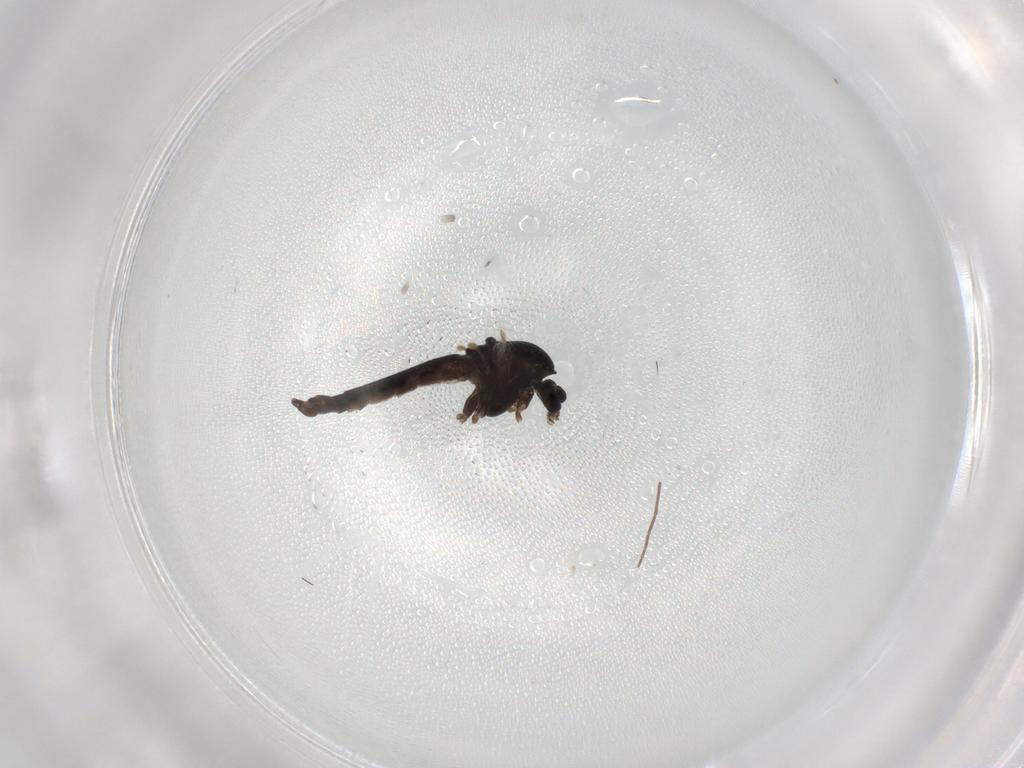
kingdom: Animalia
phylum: Arthropoda
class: Insecta
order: Diptera
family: Chironomidae
